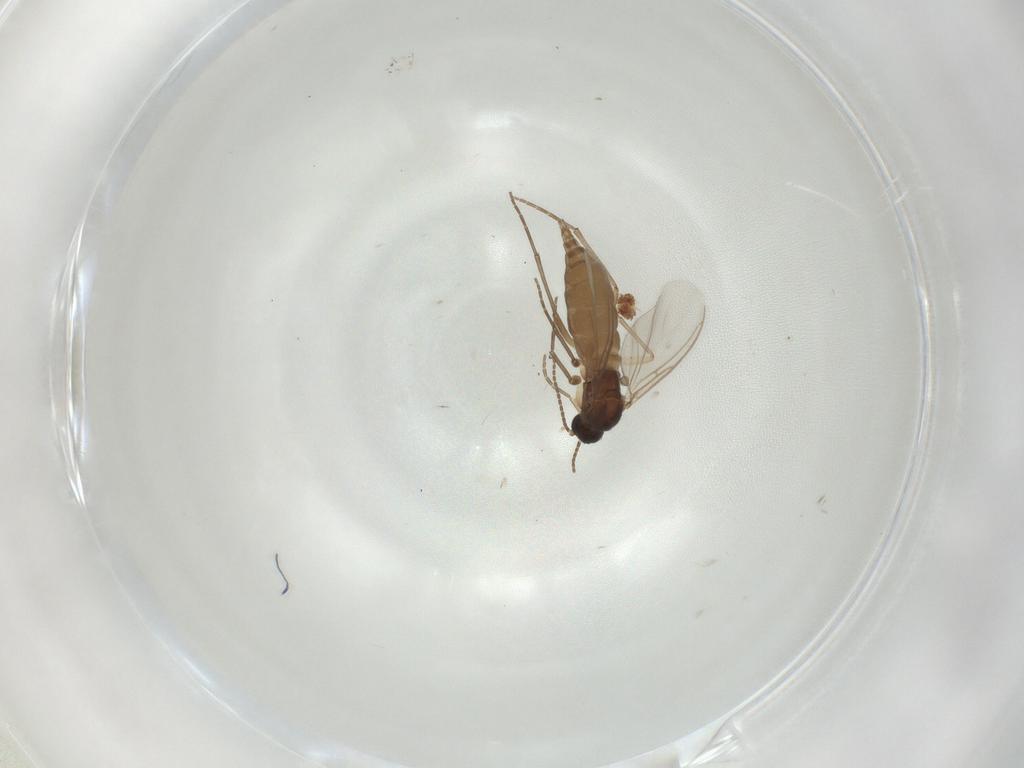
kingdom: Animalia
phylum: Arthropoda
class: Insecta
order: Diptera
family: Sciaridae
